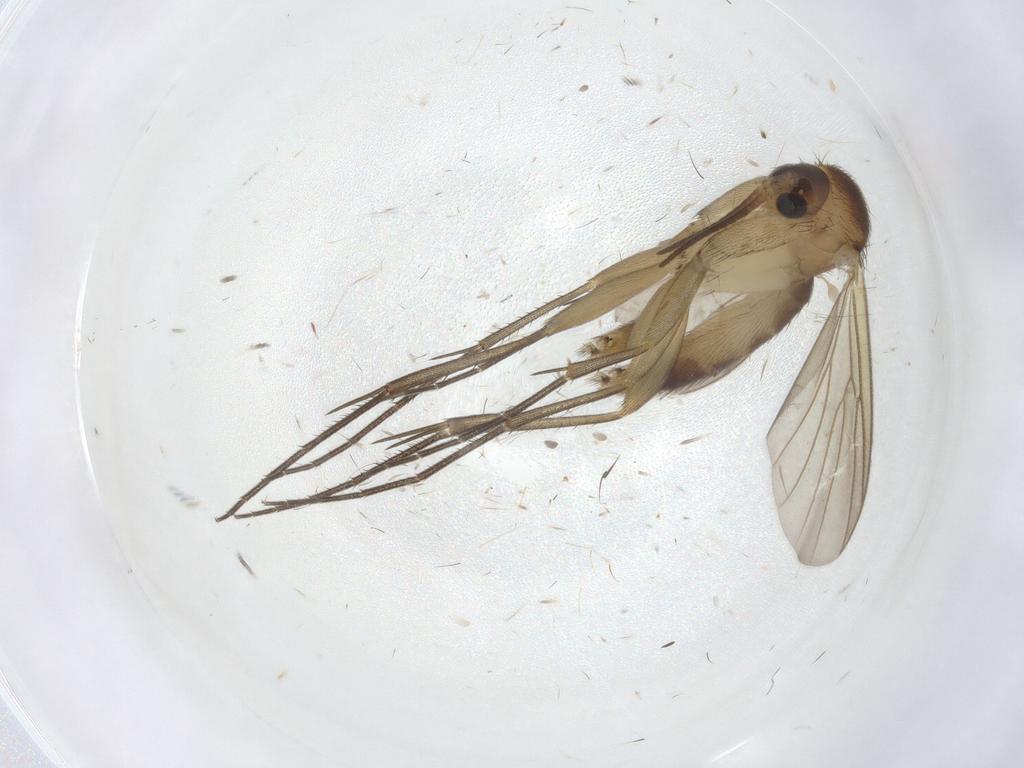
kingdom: Animalia
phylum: Arthropoda
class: Insecta
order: Diptera
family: Mycetophilidae
